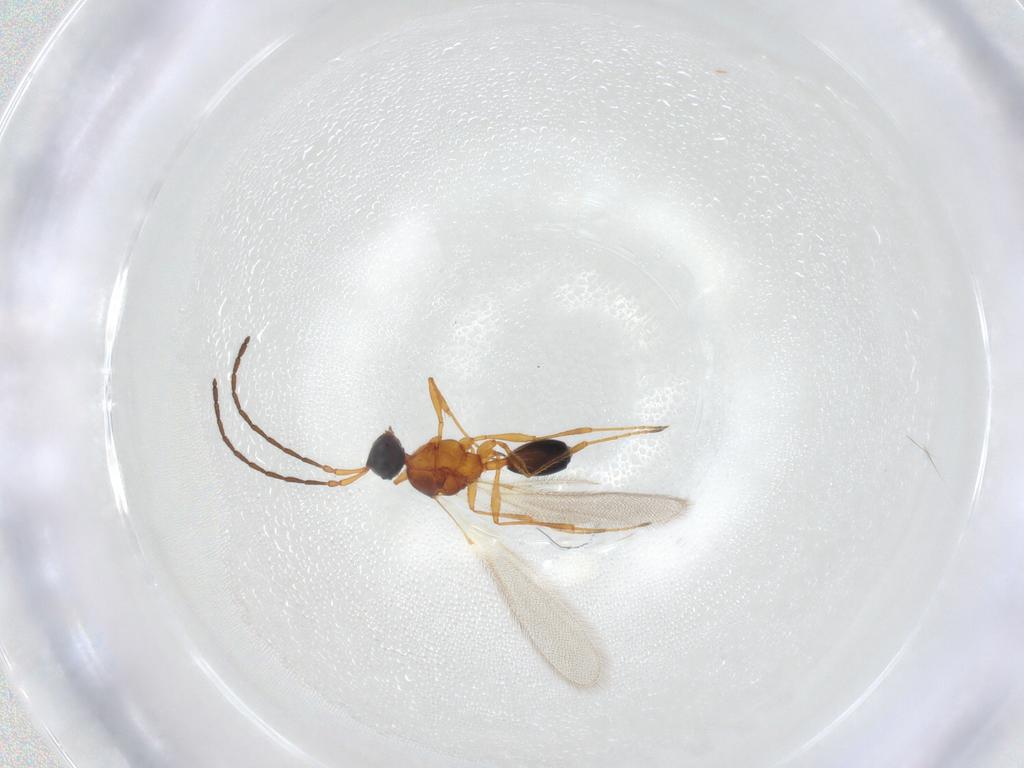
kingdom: Animalia
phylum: Arthropoda
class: Insecta
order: Hymenoptera
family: Diapriidae
